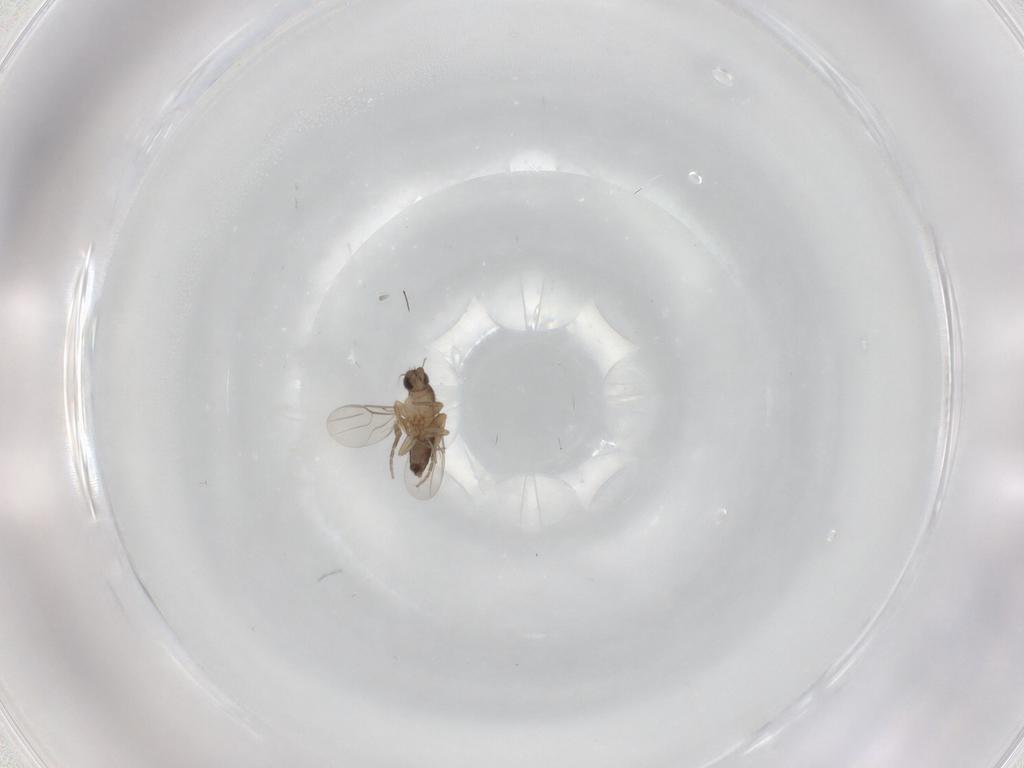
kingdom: Animalia
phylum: Arthropoda
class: Insecta
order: Diptera
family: Phoridae
